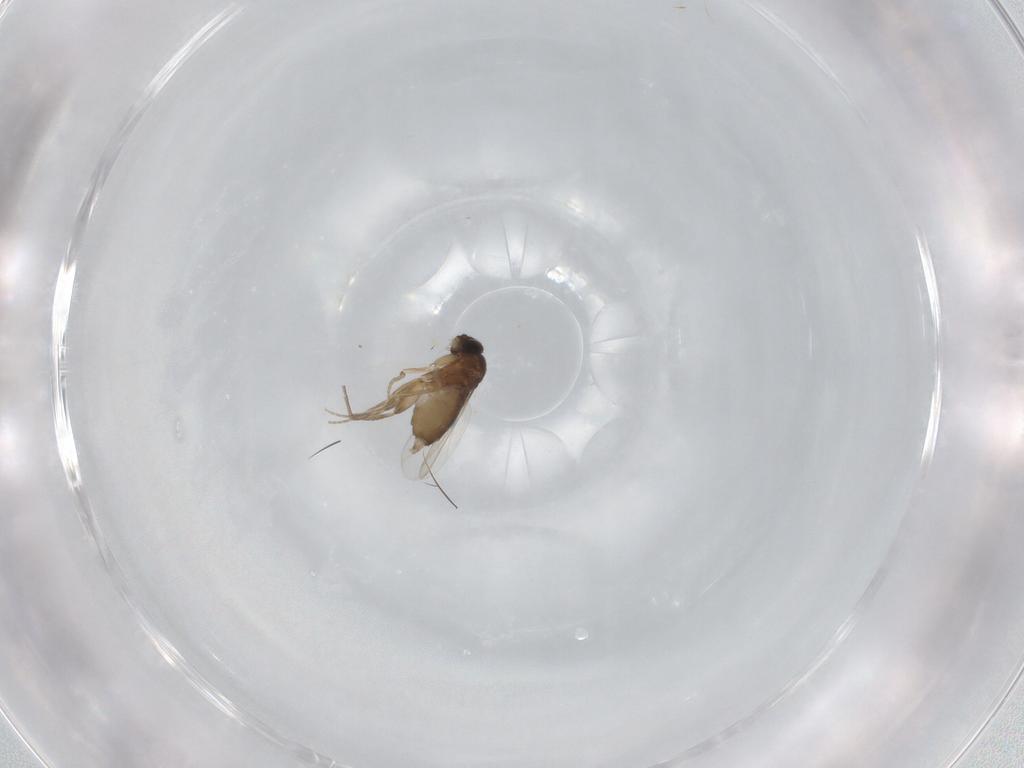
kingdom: Animalia
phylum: Arthropoda
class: Insecta
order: Diptera
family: Phoridae
